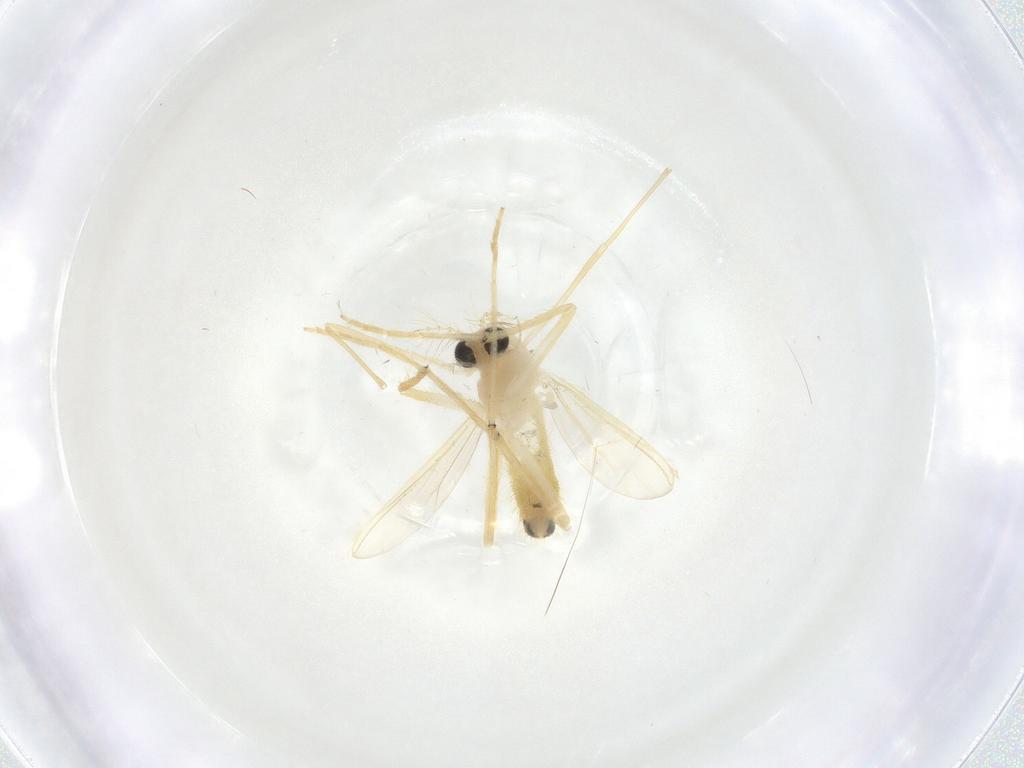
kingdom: Animalia
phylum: Arthropoda
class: Insecta
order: Diptera
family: Chironomidae
